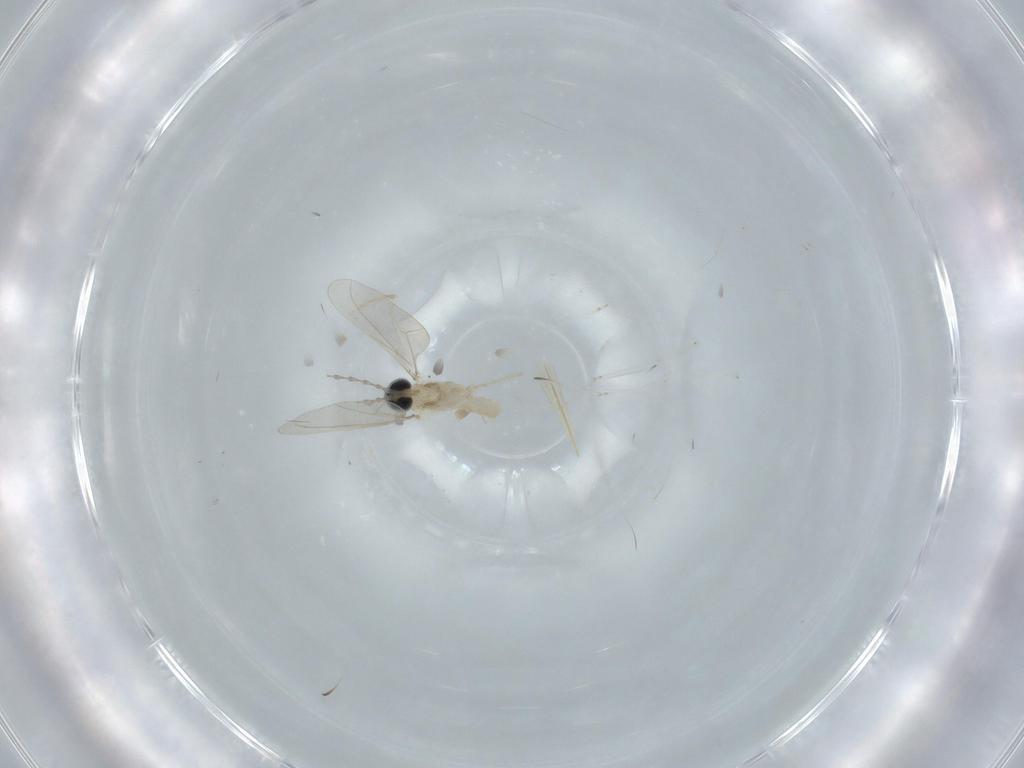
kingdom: Animalia
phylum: Arthropoda
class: Insecta
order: Diptera
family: Cecidomyiidae
